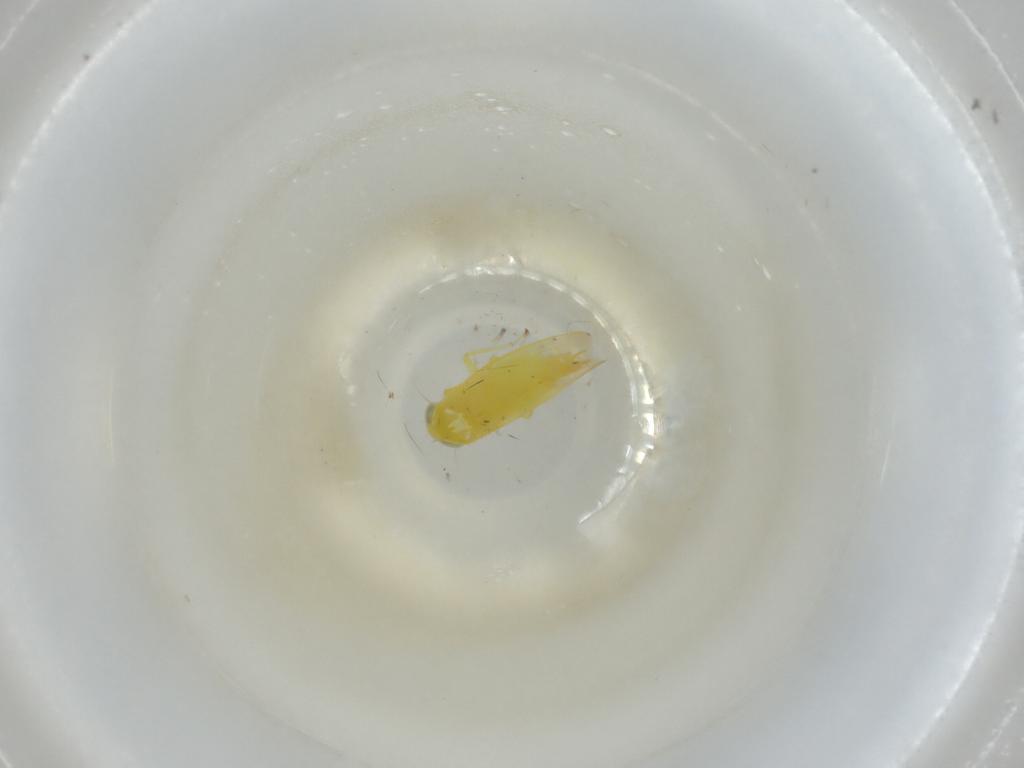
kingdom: Animalia
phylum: Arthropoda
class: Insecta
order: Hemiptera
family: Cicadellidae
